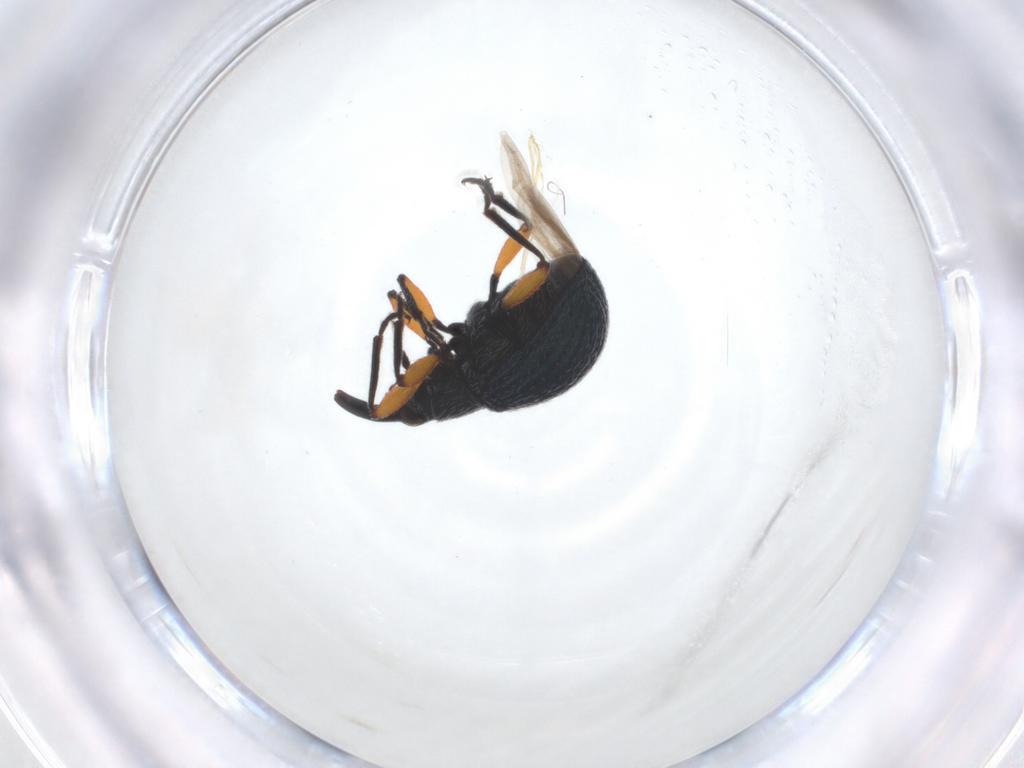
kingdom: Animalia
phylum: Arthropoda
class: Insecta
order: Coleoptera
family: Apionidae
